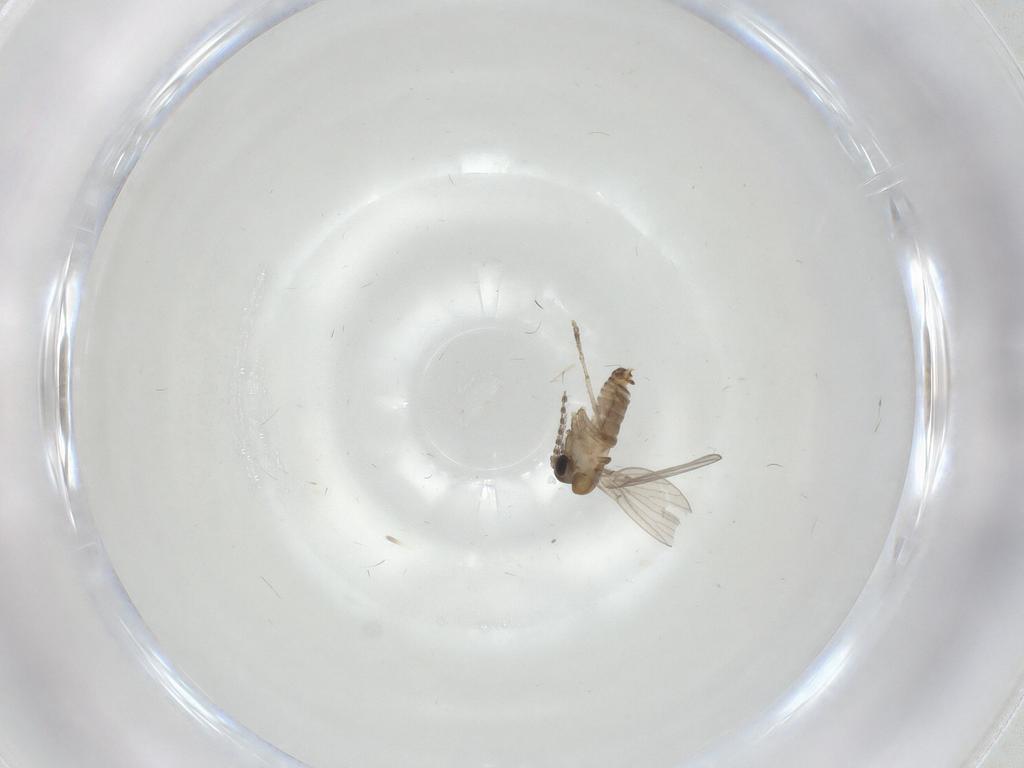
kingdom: Animalia
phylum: Arthropoda
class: Insecta
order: Diptera
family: Psychodidae
